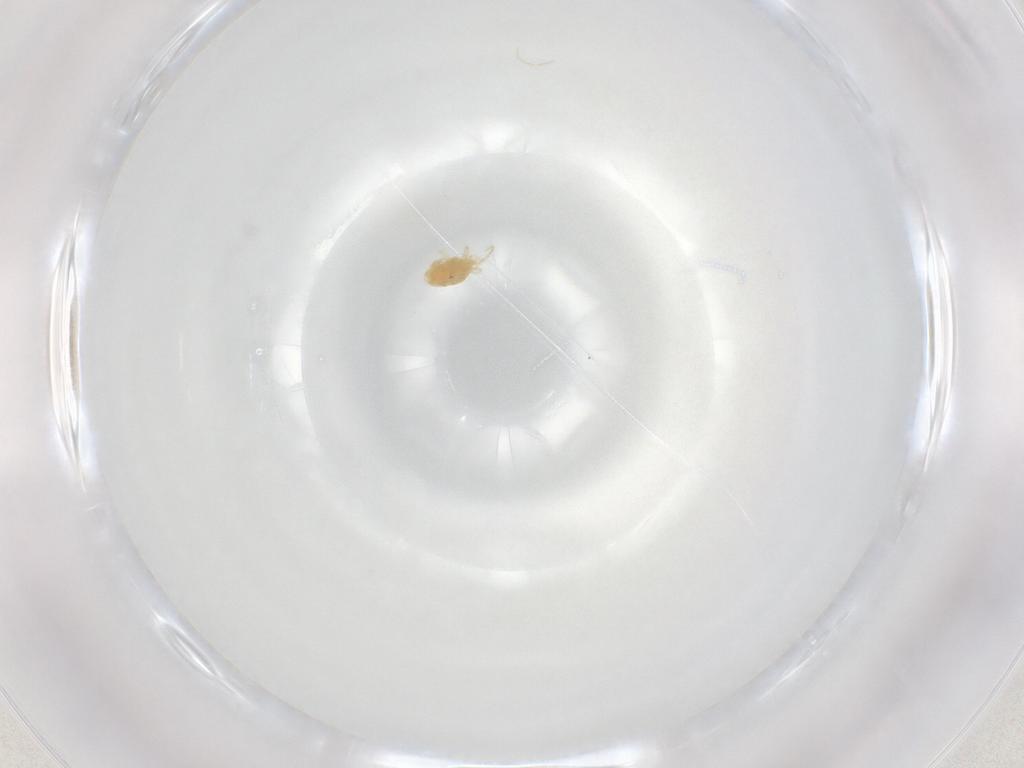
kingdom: Animalia
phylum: Arthropoda
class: Arachnida
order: Trombidiformes
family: Eupodidae
